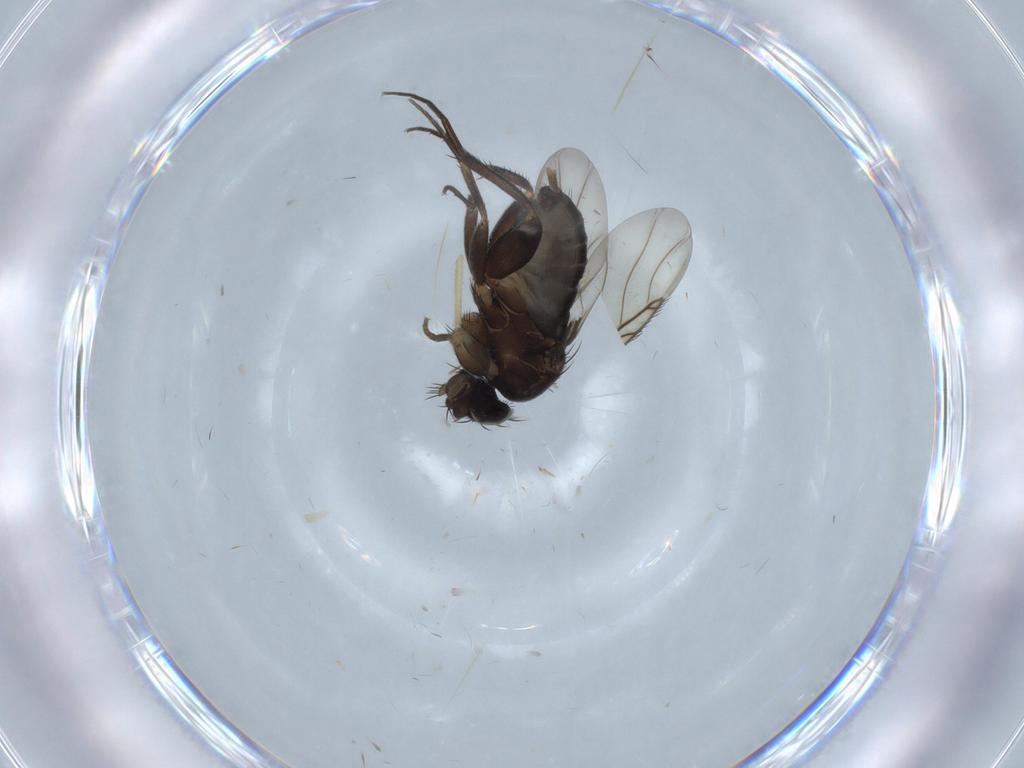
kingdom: Animalia
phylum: Arthropoda
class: Insecta
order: Diptera
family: Phoridae
